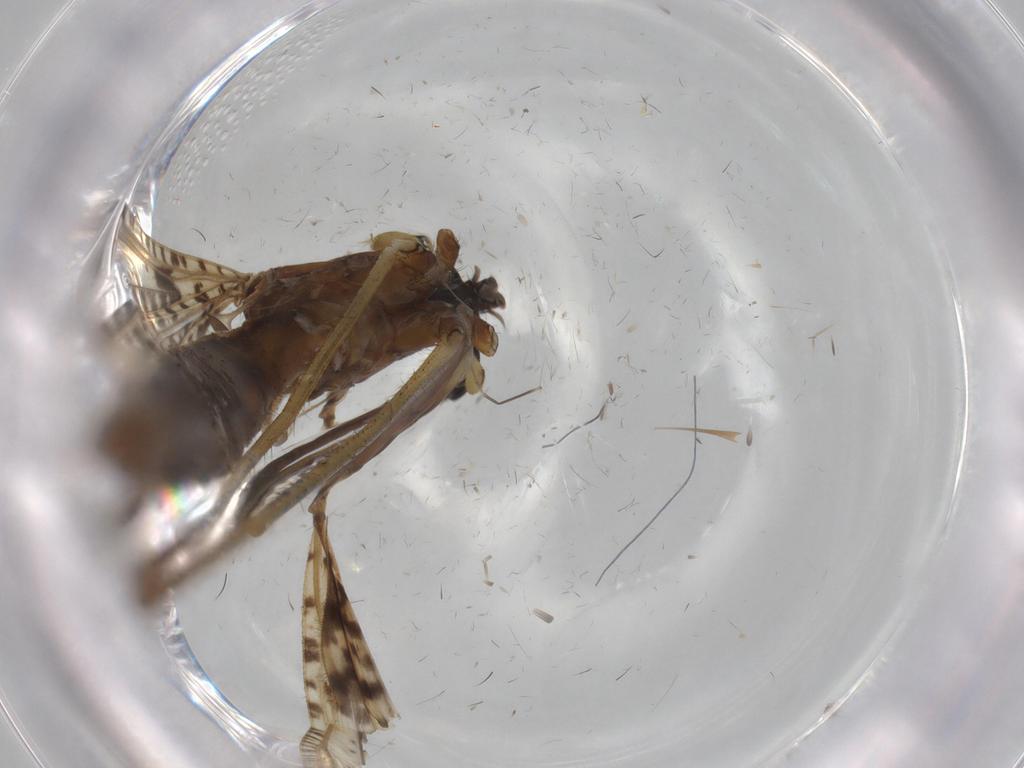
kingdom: Animalia
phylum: Arthropoda
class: Insecta
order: Diptera
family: Cecidomyiidae
